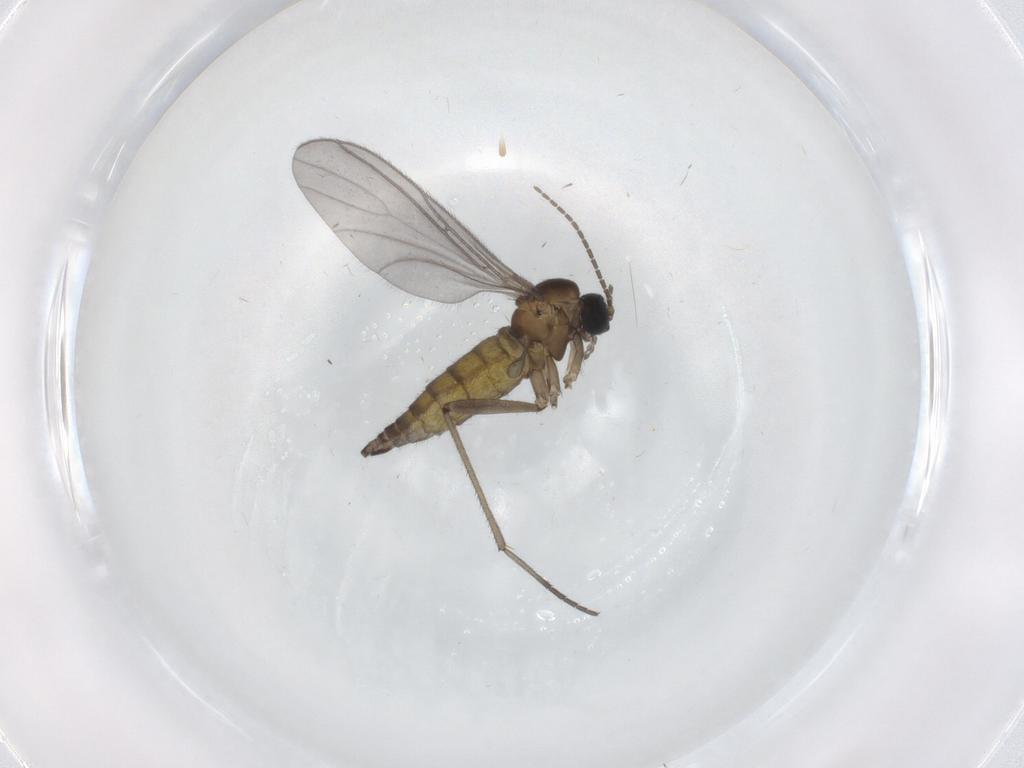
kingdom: Animalia
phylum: Arthropoda
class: Insecta
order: Diptera
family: Sciaridae
